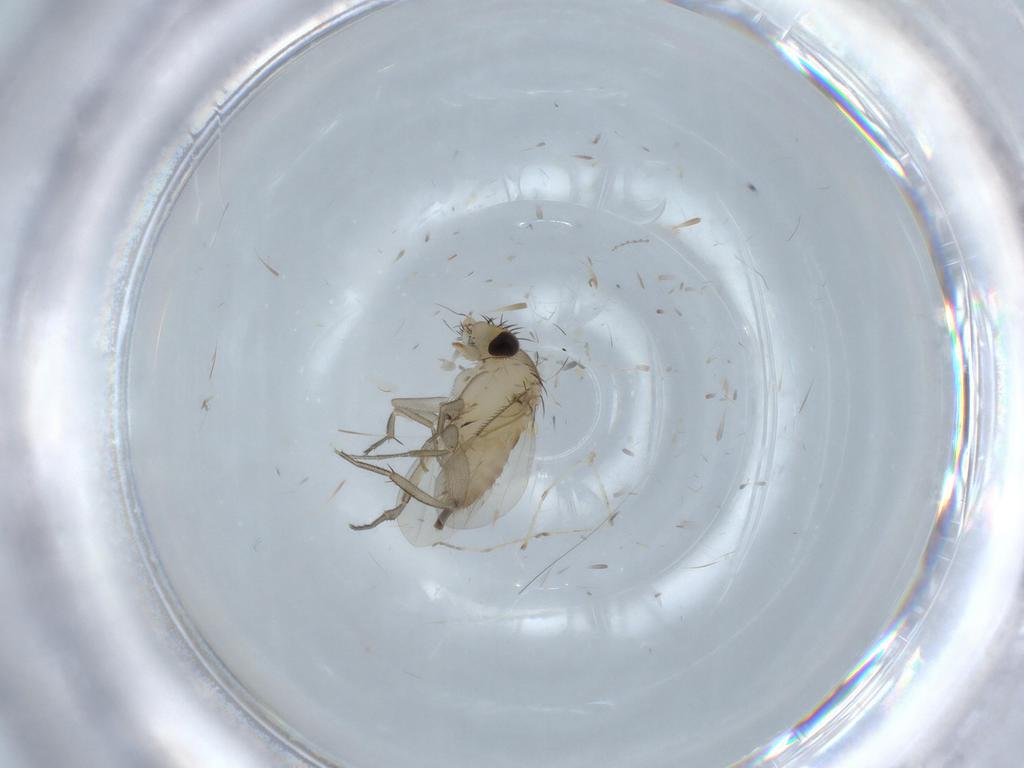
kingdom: Animalia
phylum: Arthropoda
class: Insecta
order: Diptera
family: Phoridae
